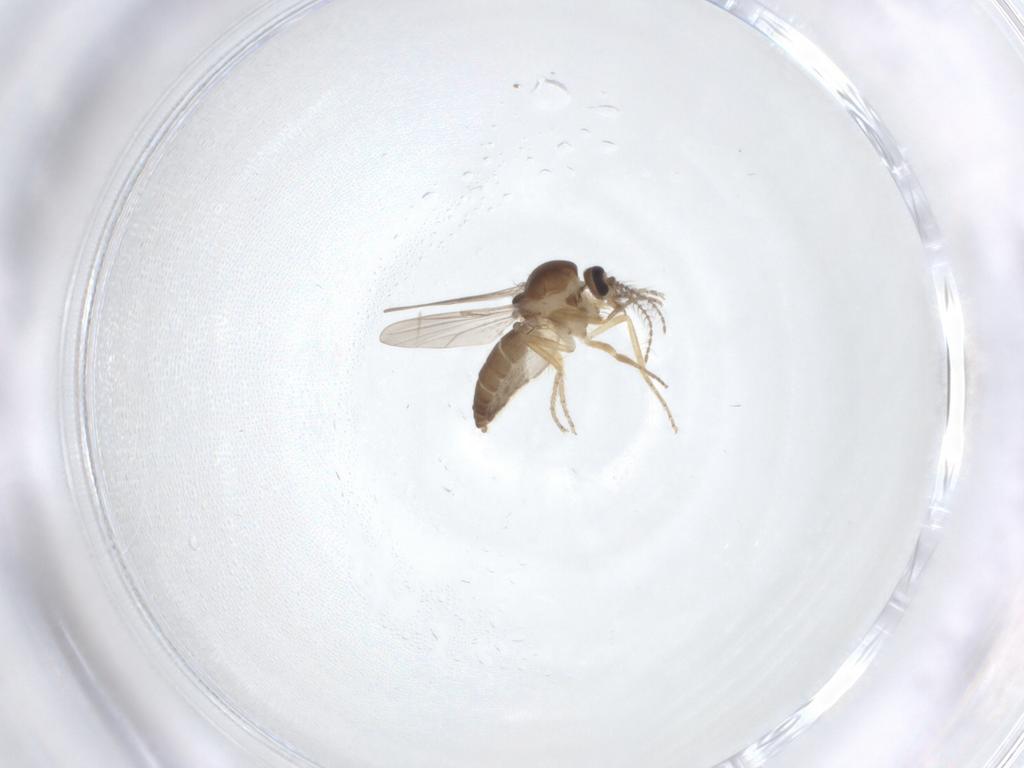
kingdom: Animalia
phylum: Arthropoda
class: Insecta
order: Diptera
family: Ceratopogonidae
